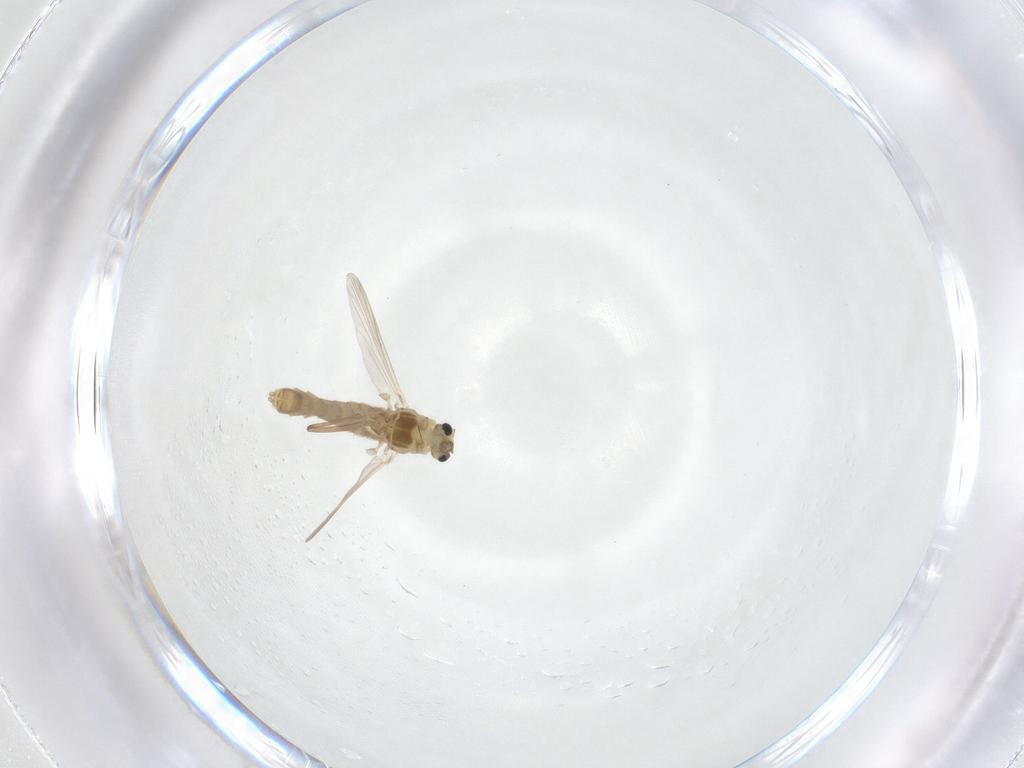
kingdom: Animalia
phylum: Arthropoda
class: Insecta
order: Diptera
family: Chironomidae
